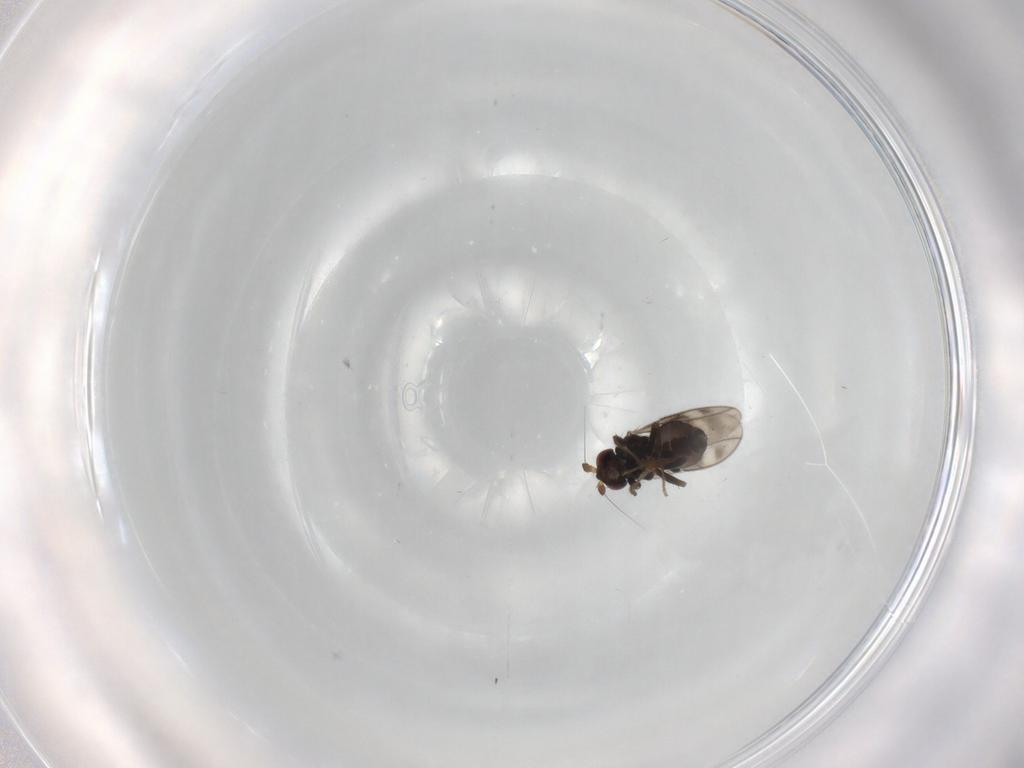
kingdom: Animalia
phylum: Arthropoda
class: Insecta
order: Diptera
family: Sphaeroceridae
